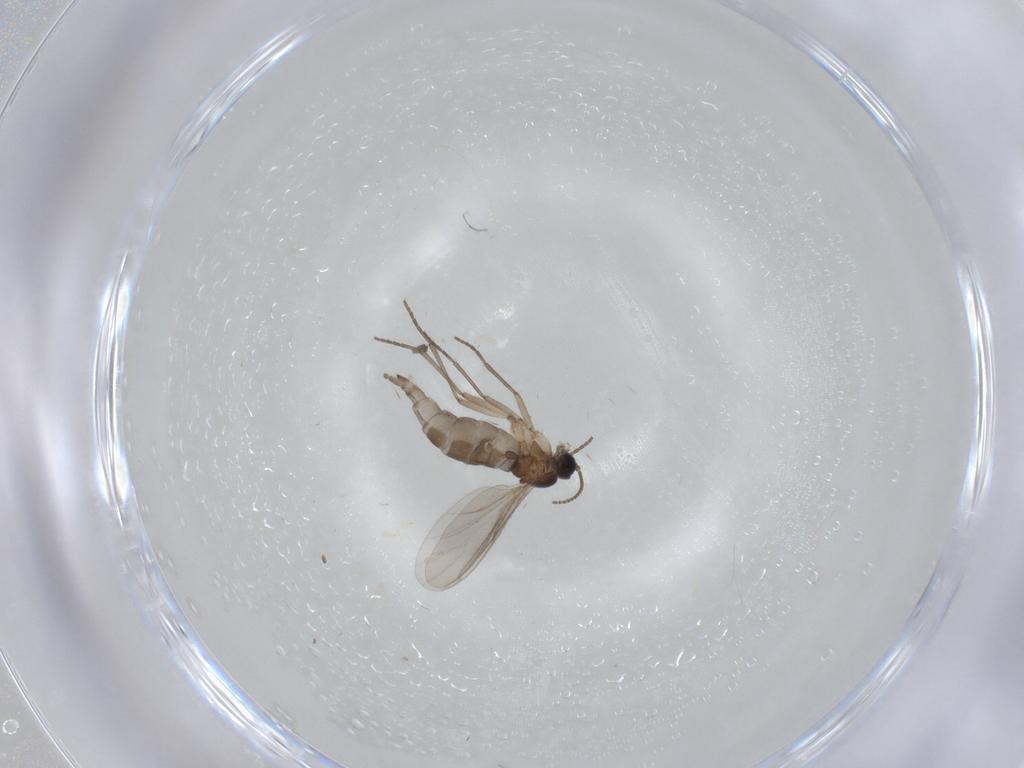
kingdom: Animalia
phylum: Arthropoda
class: Insecta
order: Diptera
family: Sciaridae
